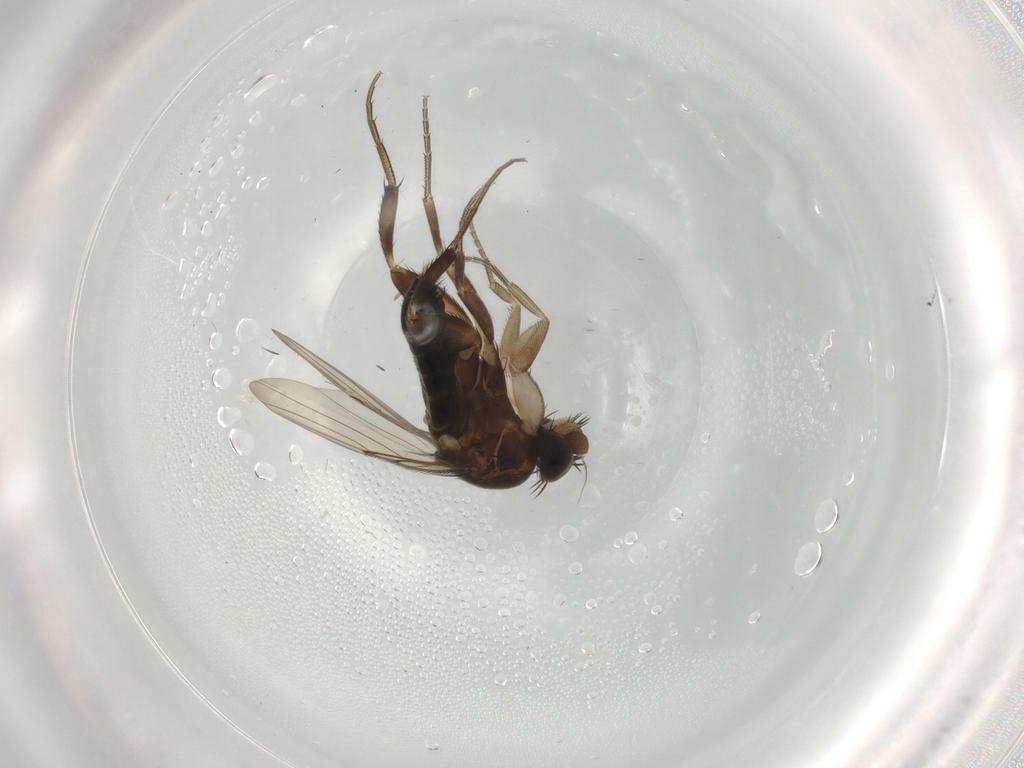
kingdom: Animalia
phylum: Arthropoda
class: Insecta
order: Diptera
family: Phoridae
